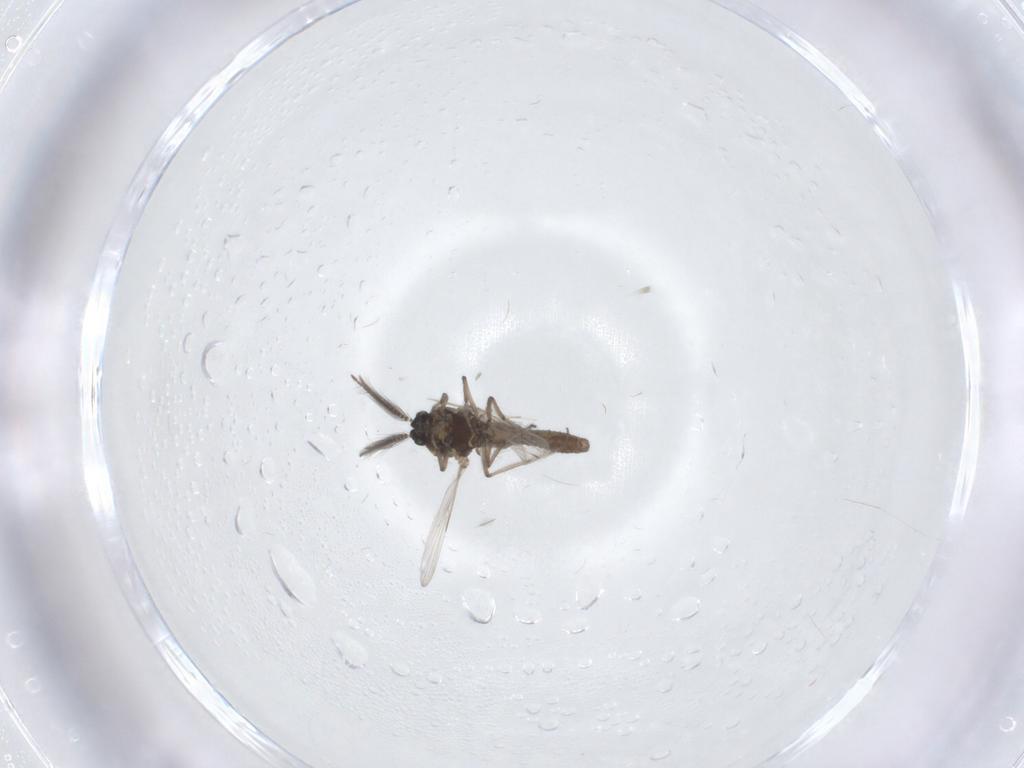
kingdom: Animalia
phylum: Arthropoda
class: Insecta
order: Diptera
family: Ceratopogonidae
